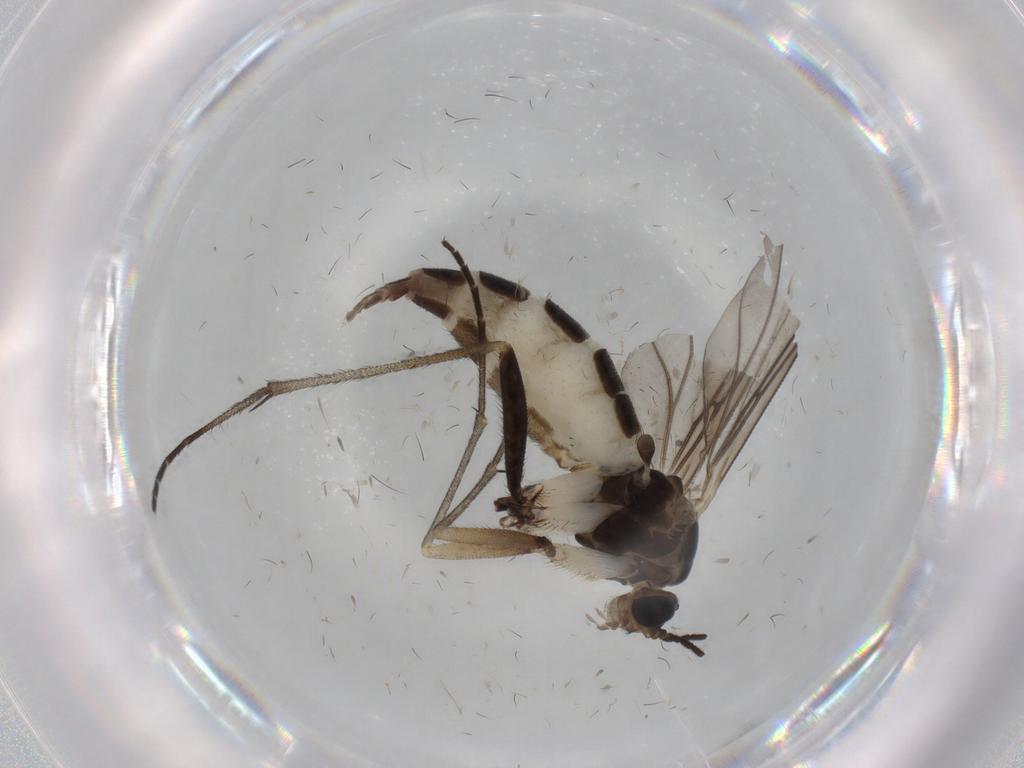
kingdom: Animalia
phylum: Arthropoda
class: Insecta
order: Diptera
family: Sciaridae
